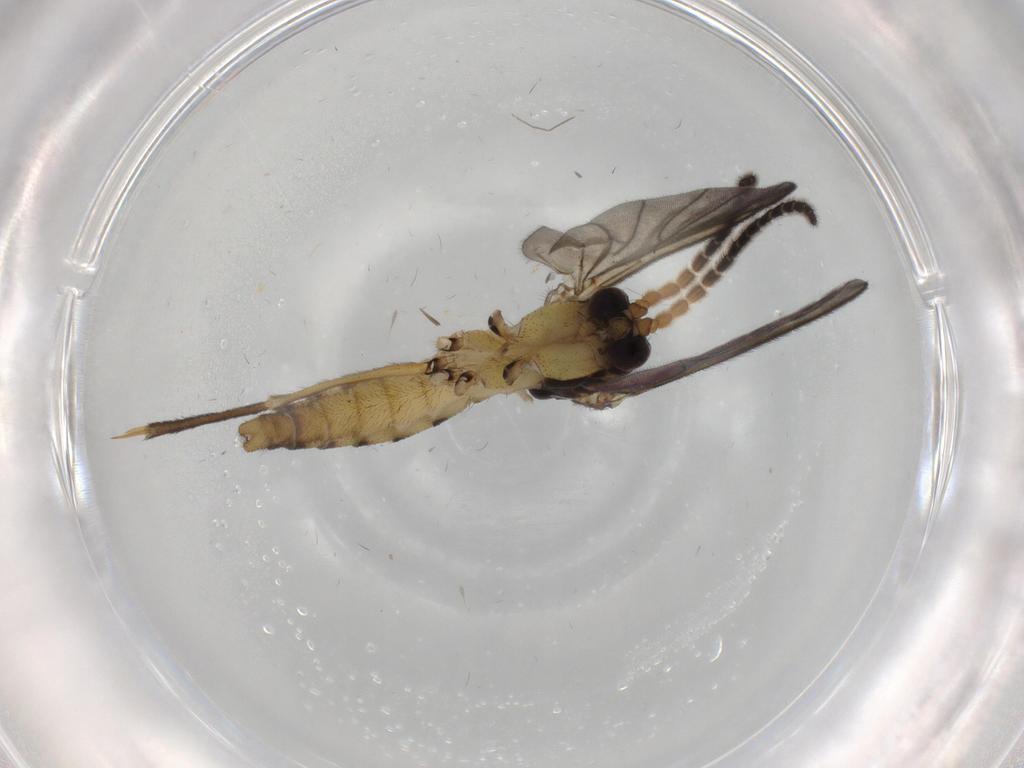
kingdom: Animalia
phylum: Arthropoda
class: Insecta
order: Diptera
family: Mycetophilidae
